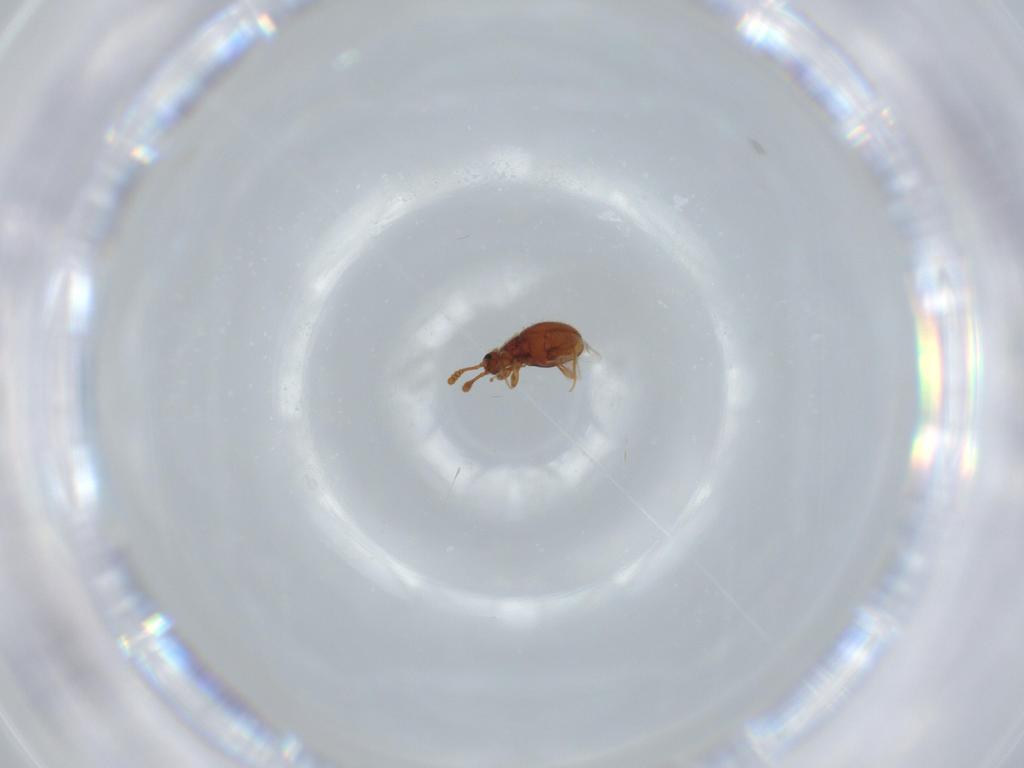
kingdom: Animalia
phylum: Arthropoda
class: Insecta
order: Coleoptera
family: Staphylinidae
